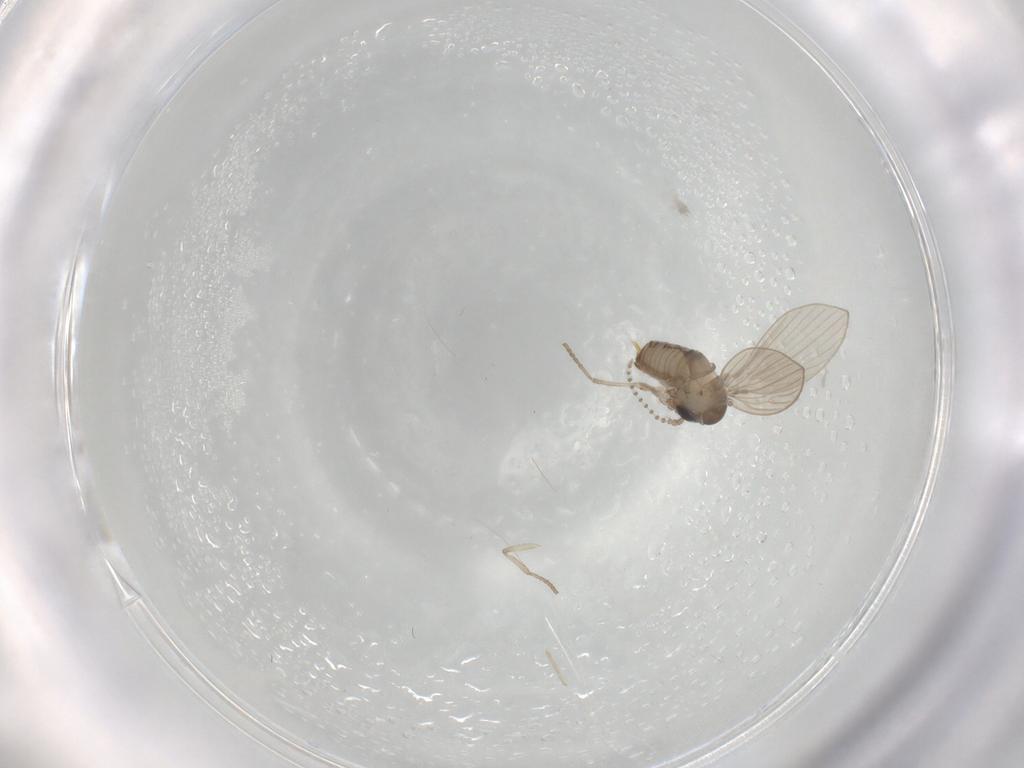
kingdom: Animalia
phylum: Arthropoda
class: Insecta
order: Diptera
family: Psychodidae
